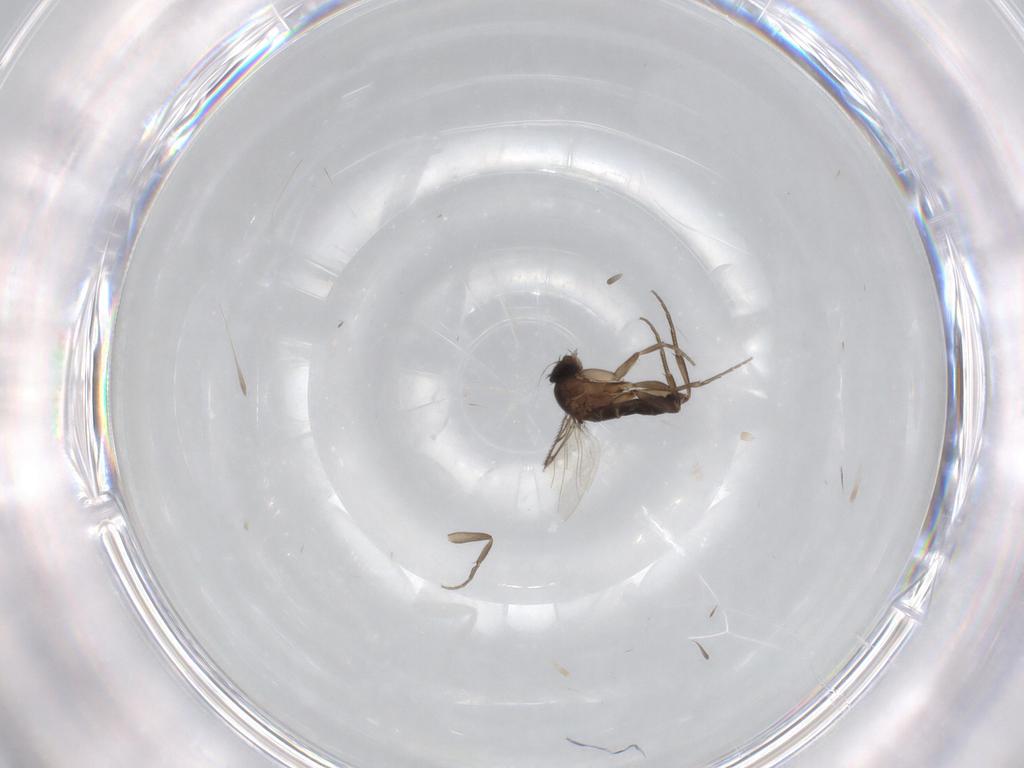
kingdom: Animalia
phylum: Arthropoda
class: Insecta
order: Diptera
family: Phoridae
